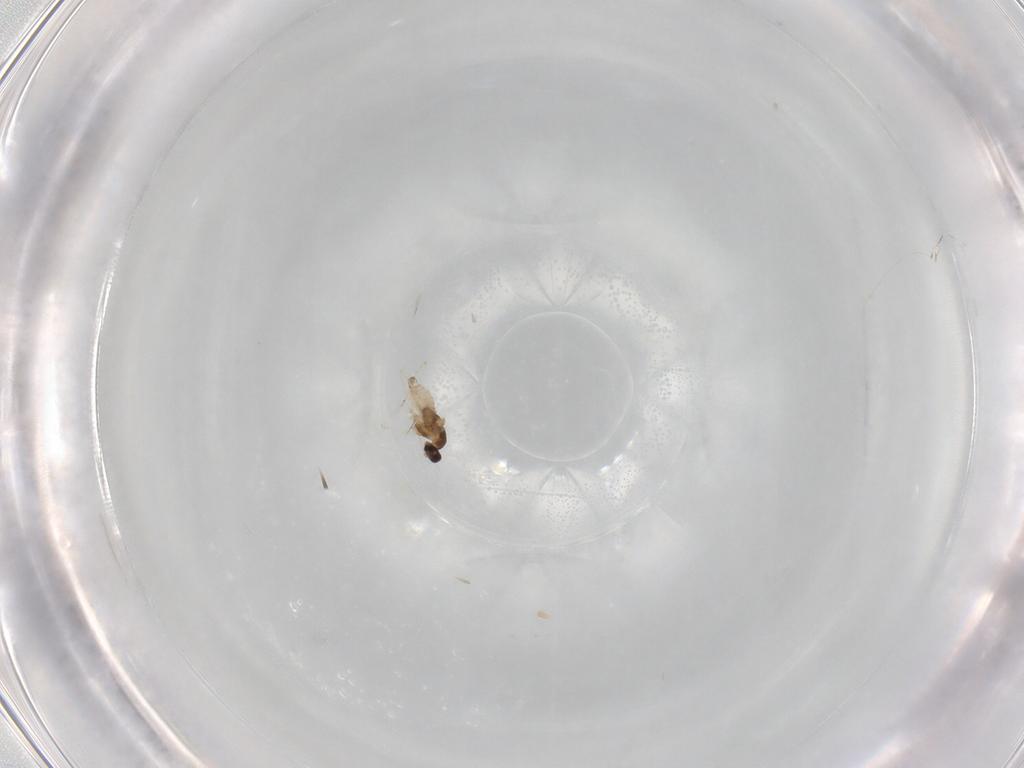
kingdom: Animalia
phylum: Arthropoda
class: Insecta
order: Diptera
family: Cecidomyiidae
